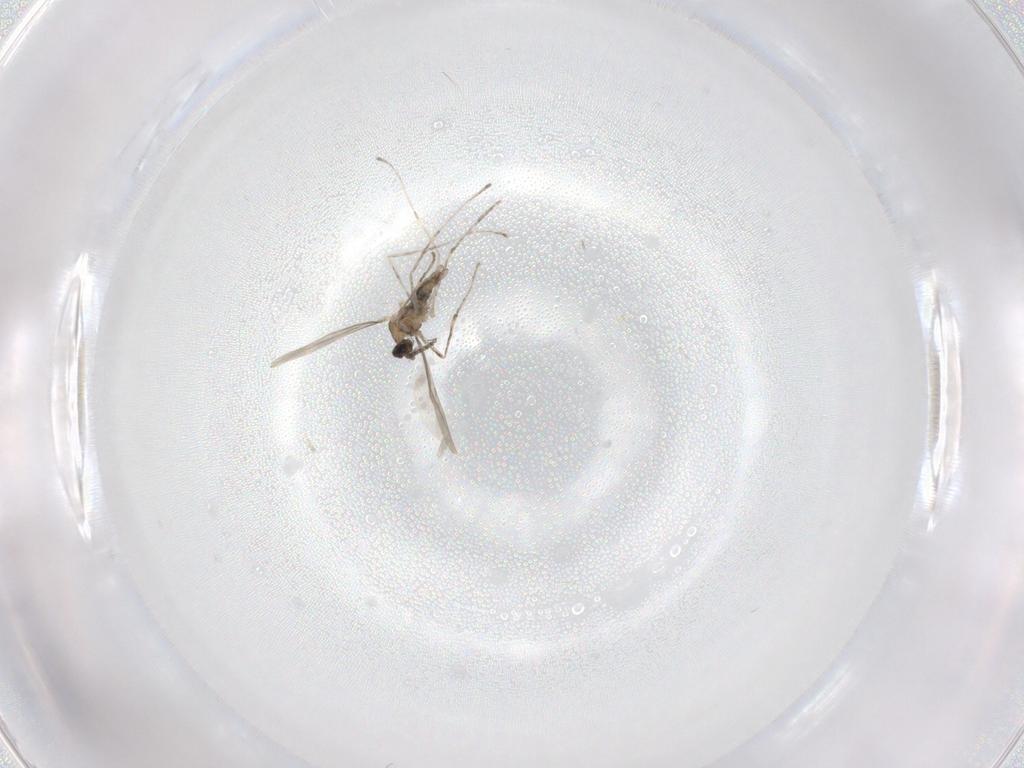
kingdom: Animalia
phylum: Arthropoda
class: Insecta
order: Diptera
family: Cecidomyiidae
